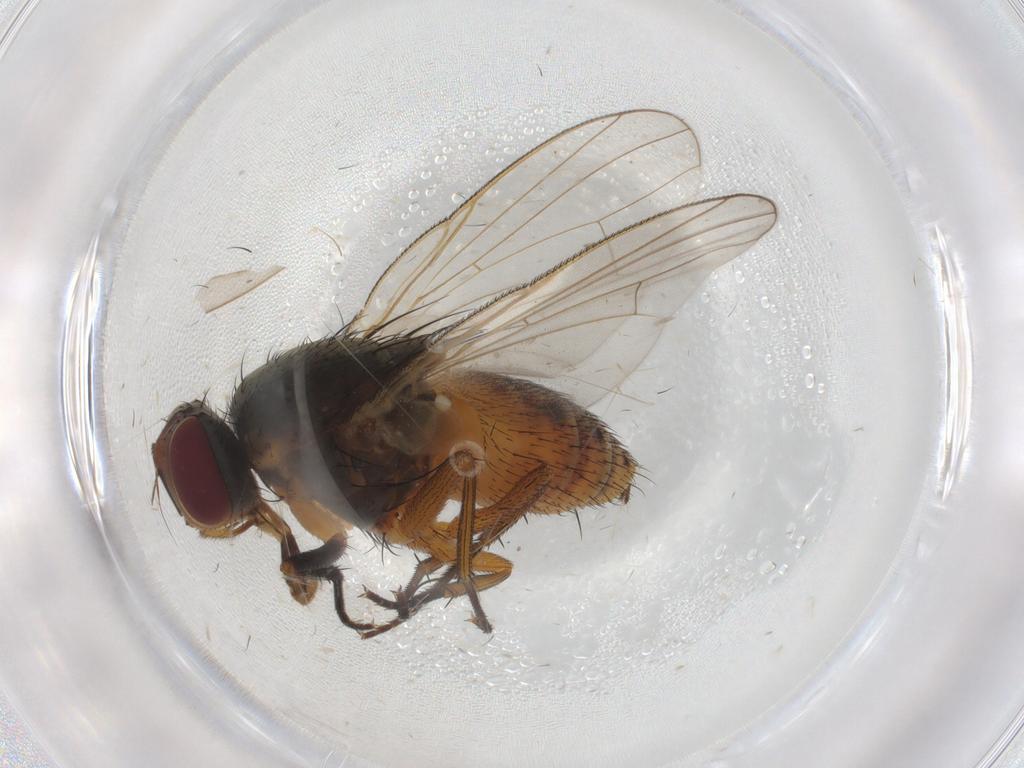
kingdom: Animalia
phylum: Arthropoda
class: Insecta
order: Diptera
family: Muscidae
